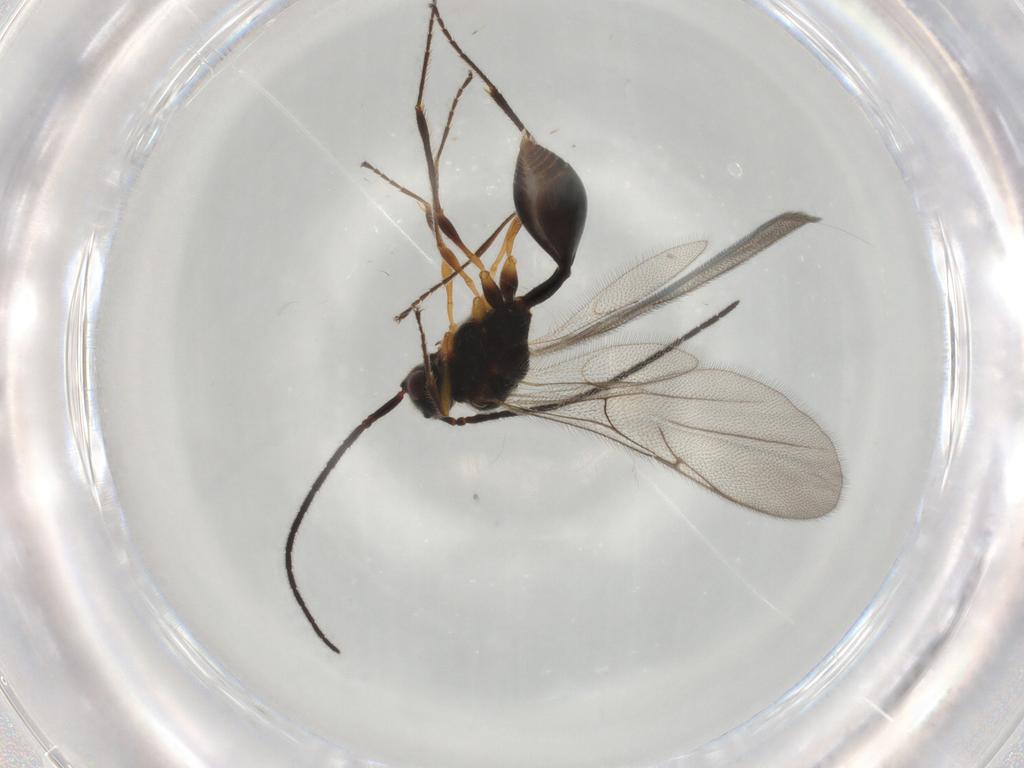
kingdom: Animalia
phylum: Arthropoda
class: Insecta
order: Hymenoptera
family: Diapriidae
